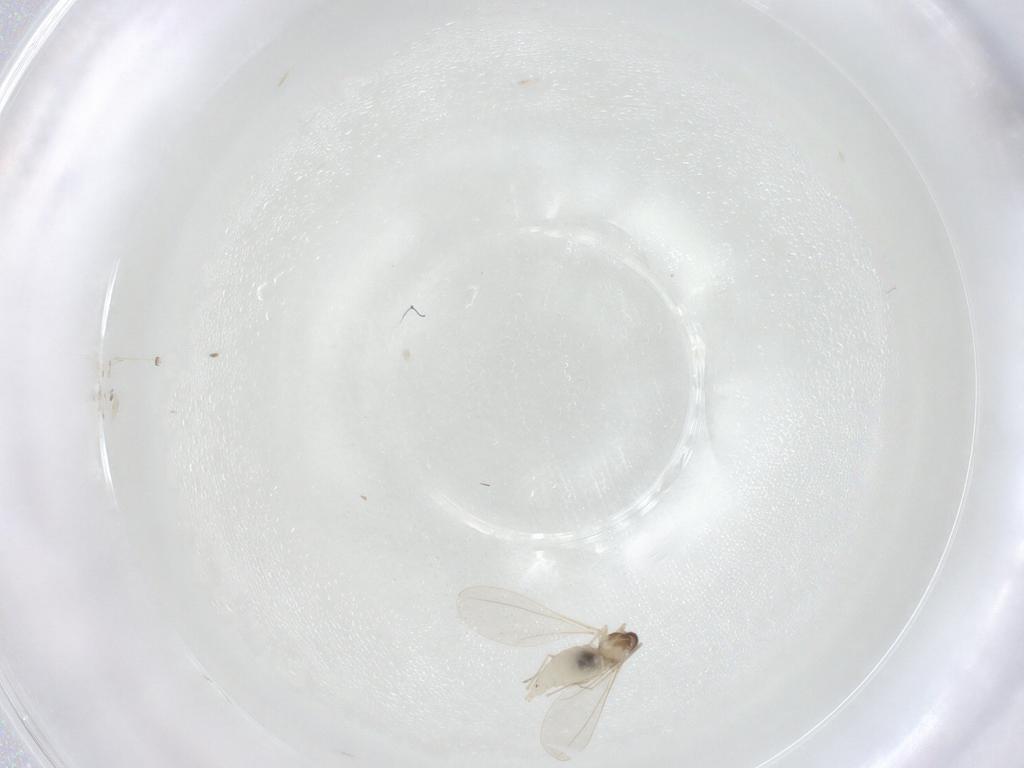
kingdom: Animalia
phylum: Arthropoda
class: Insecta
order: Diptera
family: Cecidomyiidae
